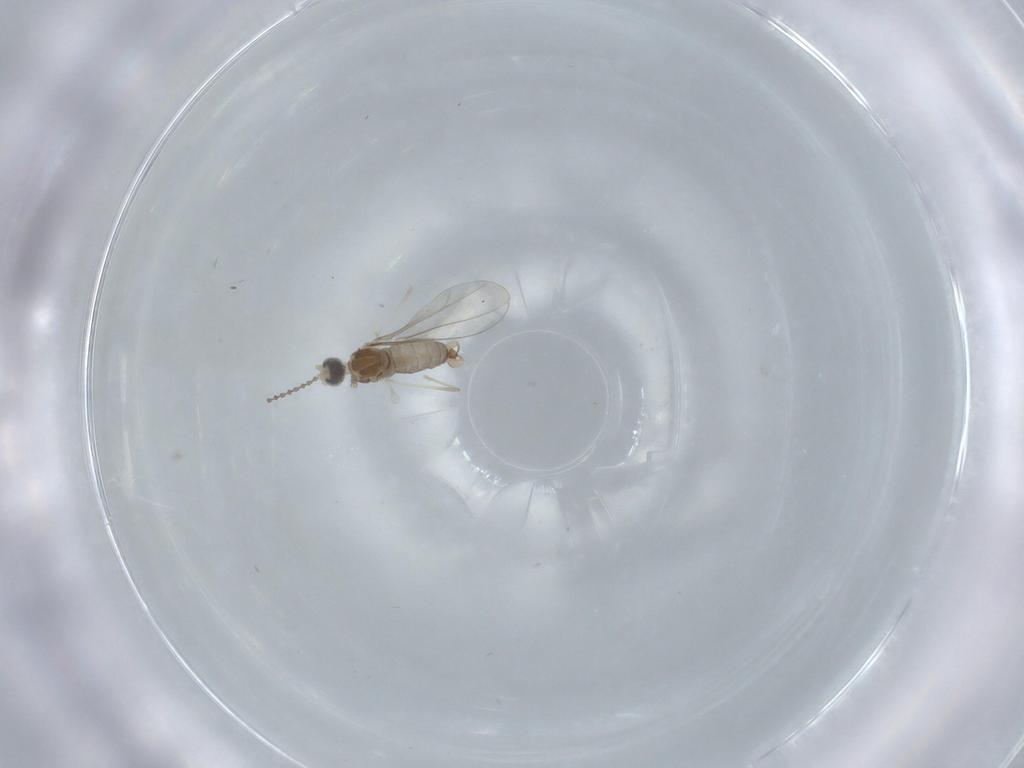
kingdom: Animalia
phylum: Arthropoda
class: Insecta
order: Diptera
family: Cecidomyiidae
